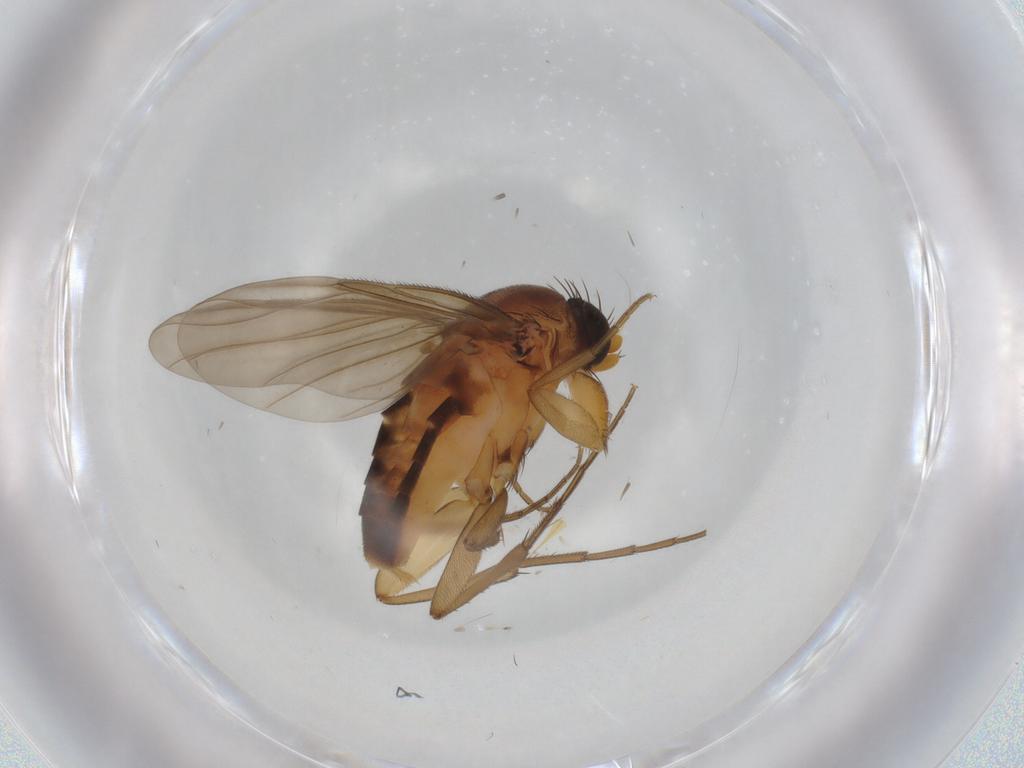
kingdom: Animalia
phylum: Arthropoda
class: Insecta
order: Diptera
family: Phoridae
